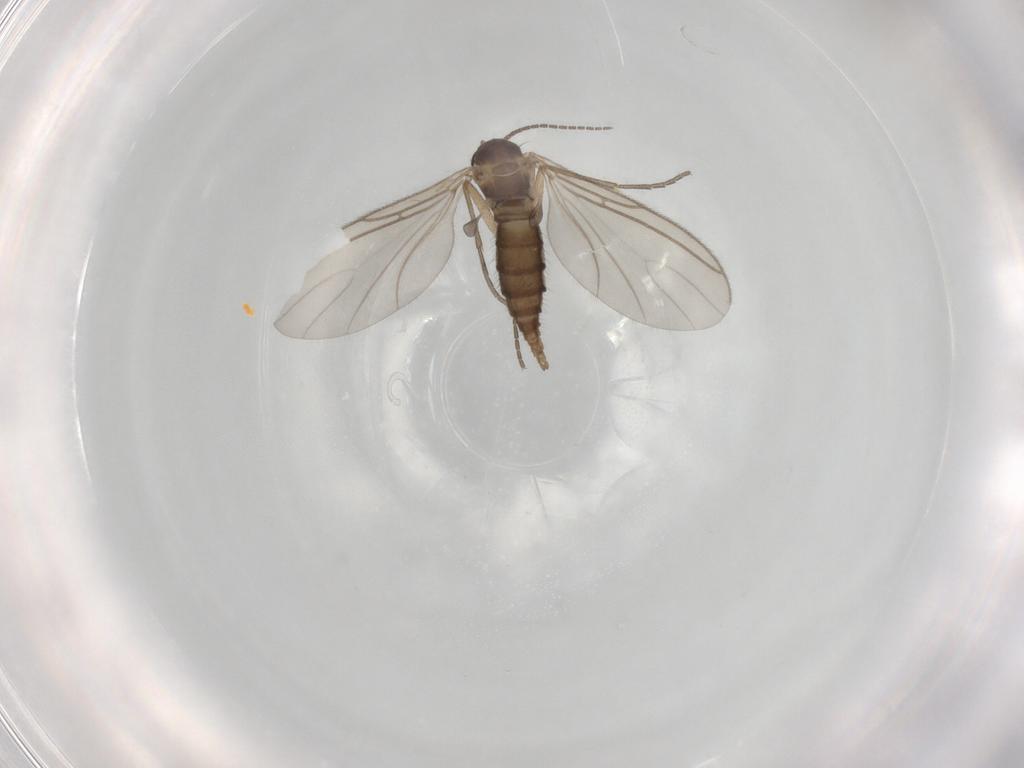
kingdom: Animalia
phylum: Arthropoda
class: Insecta
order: Diptera
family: Sciaridae
